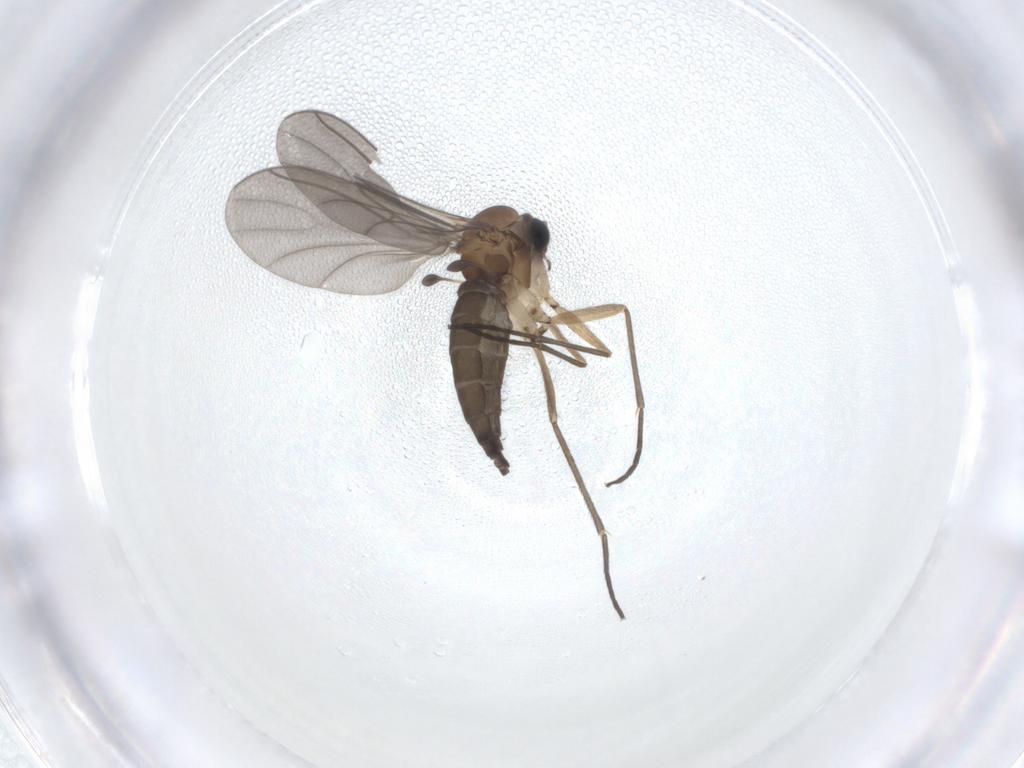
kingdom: Animalia
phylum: Arthropoda
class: Insecta
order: Diptera
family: Sciaridae
